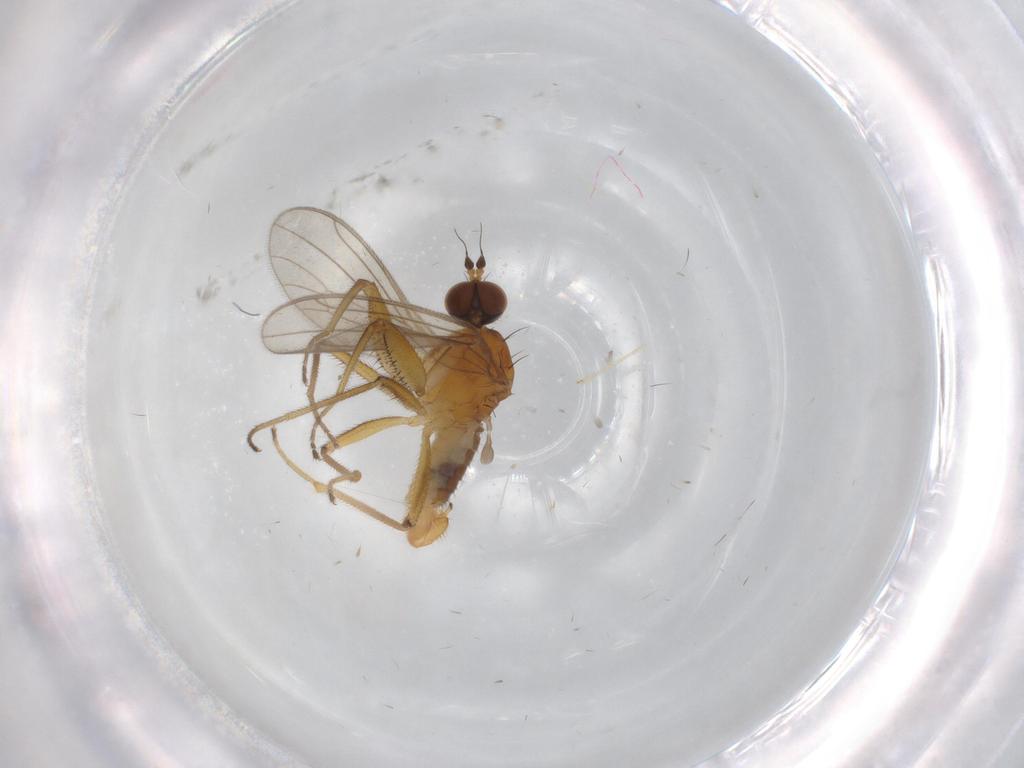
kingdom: Animalia
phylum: Arthropoda
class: Insecta
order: Diptera
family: Empididae
